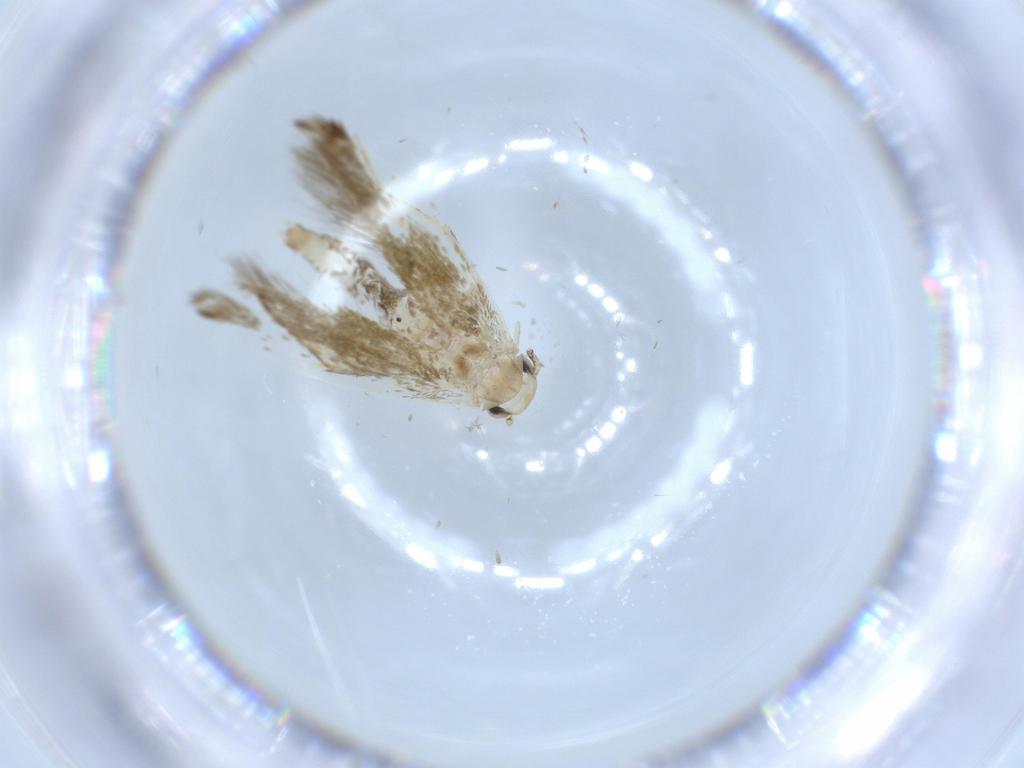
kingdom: Animalia
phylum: Arthropoda
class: Insecta
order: Lepidoptera
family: Tineidae
